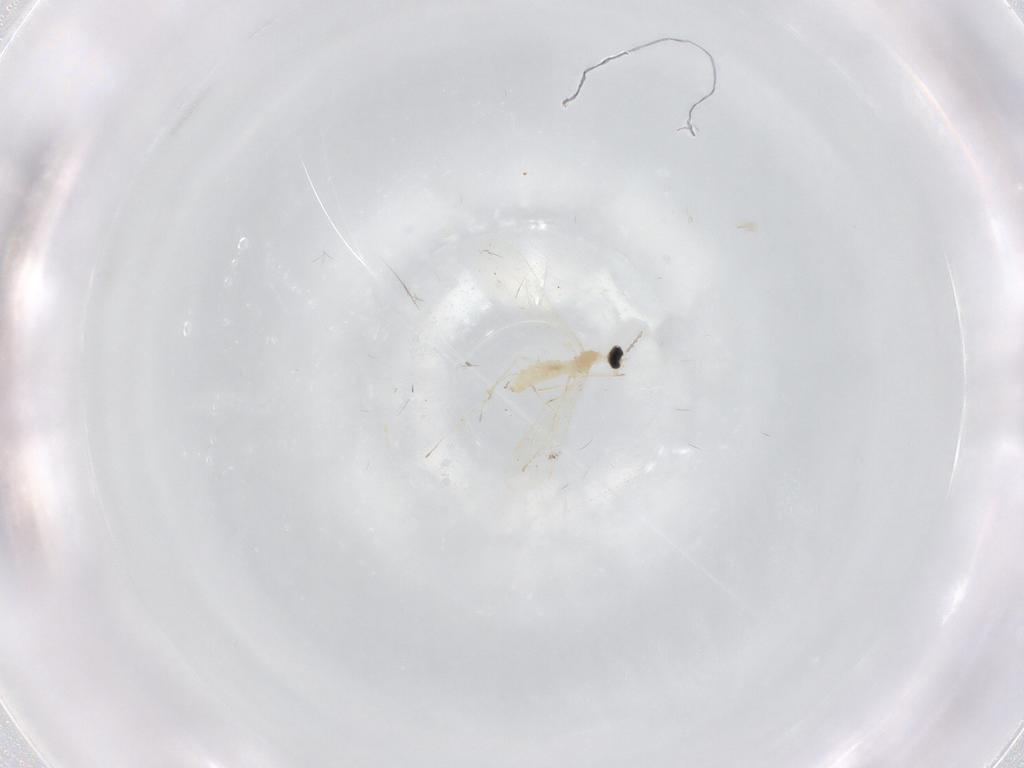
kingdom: Animalia
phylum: Arthropoda
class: Insecta
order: Diptera
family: Cecidomyiidae
